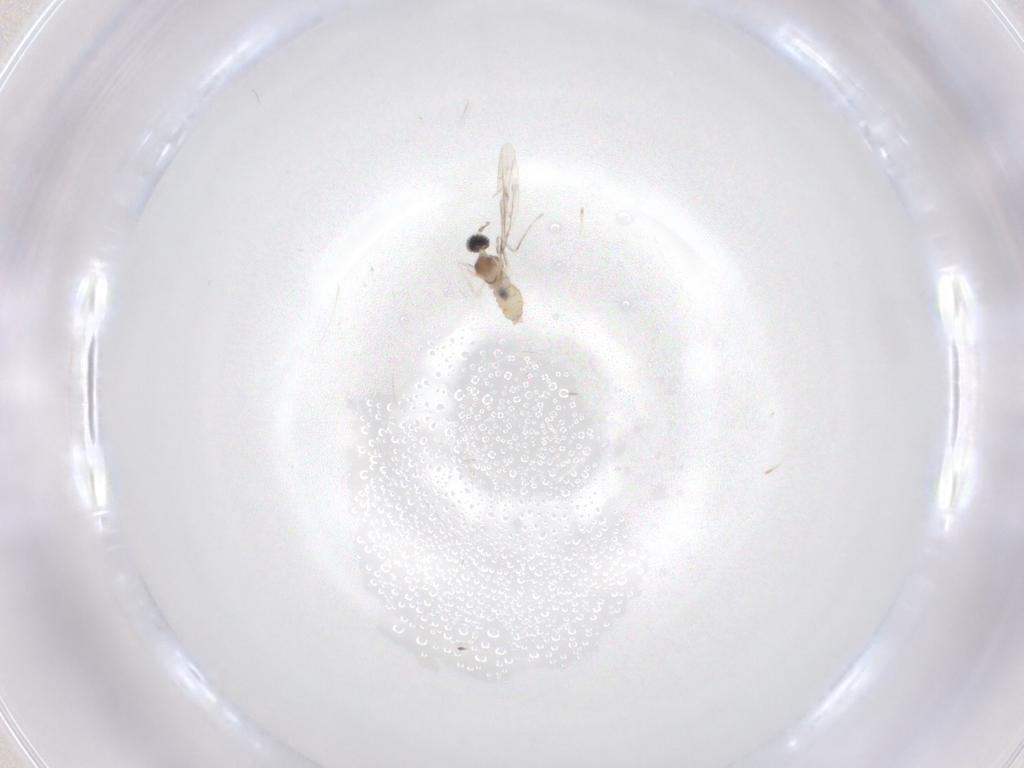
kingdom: Animalia
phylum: Arthropoda
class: Insecta
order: Diptera
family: Cecidomyiidae
